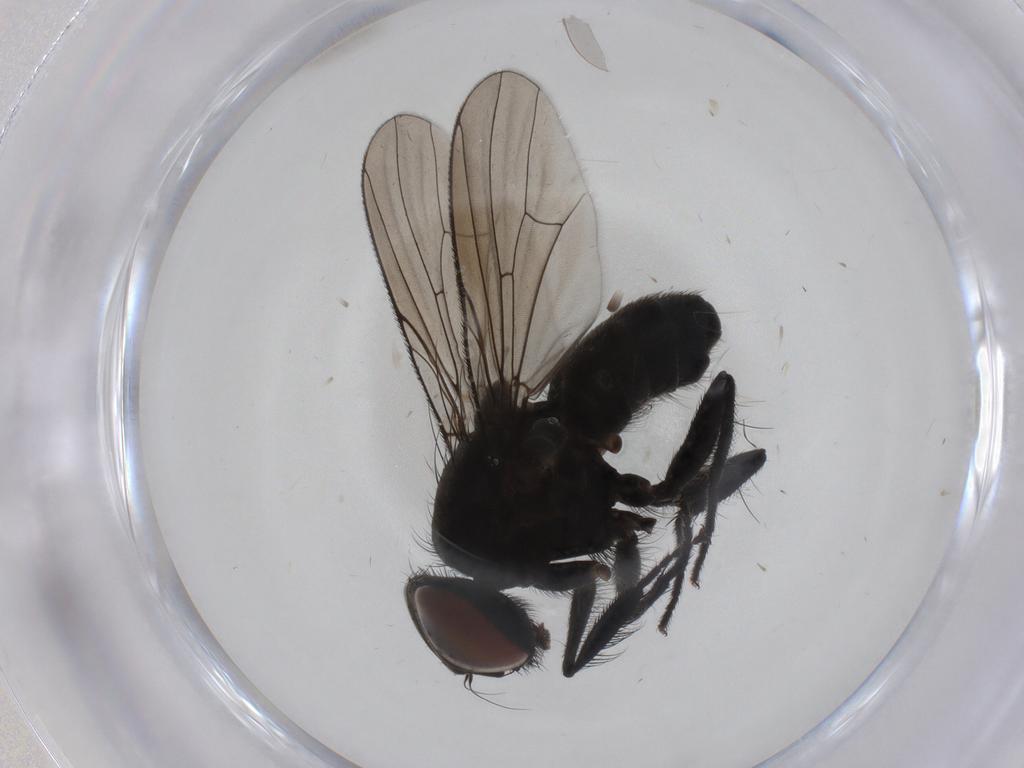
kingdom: Animalia
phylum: Arthropoda
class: Insecta
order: Diptera
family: Muscidae
